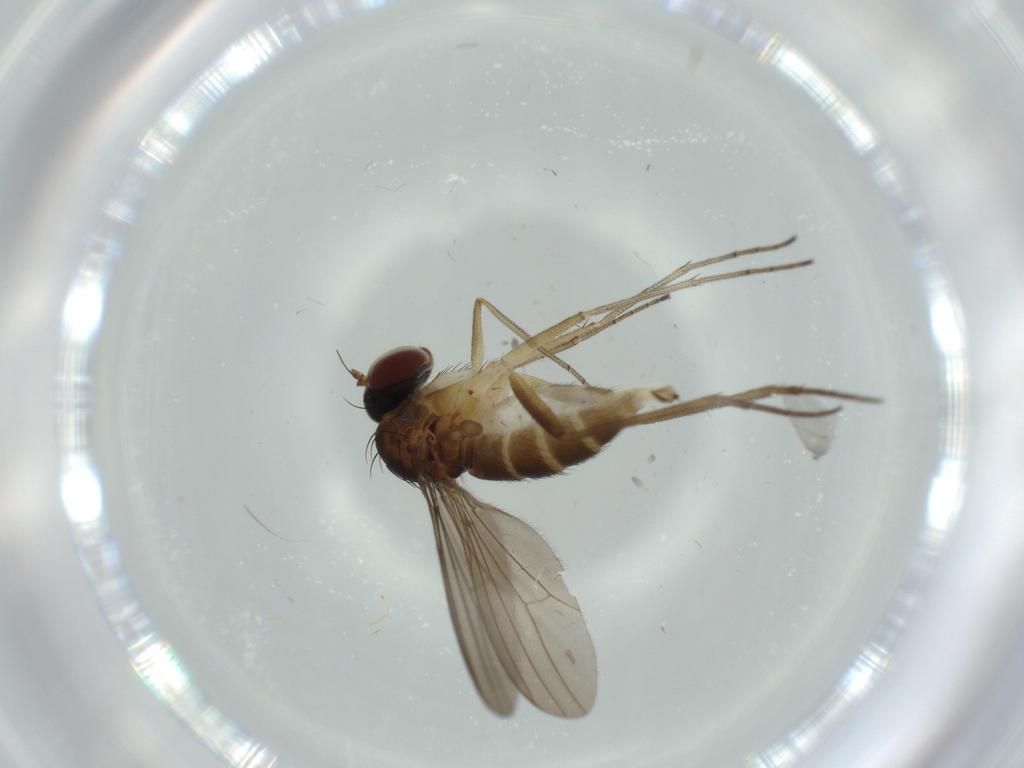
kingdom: Animalia
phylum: Arthropoda
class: Insecta
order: Diptera
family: Dolichopodidae
